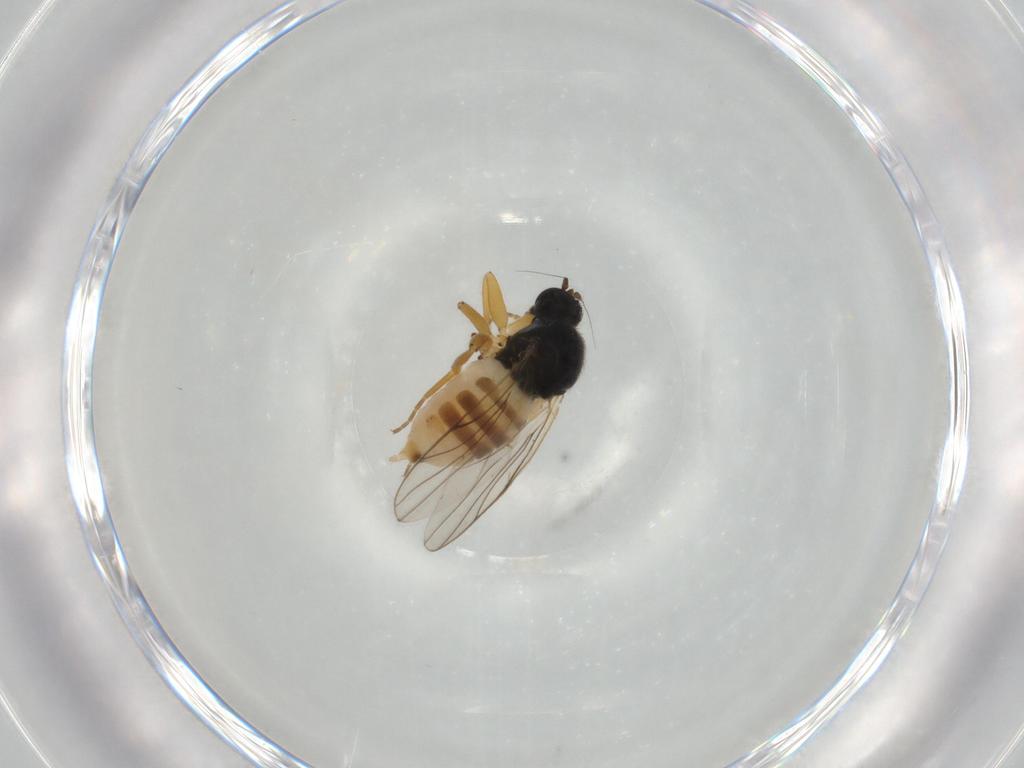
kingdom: Animalia
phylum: Arthropoda
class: Insecta
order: Diptera
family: Hybotidae
